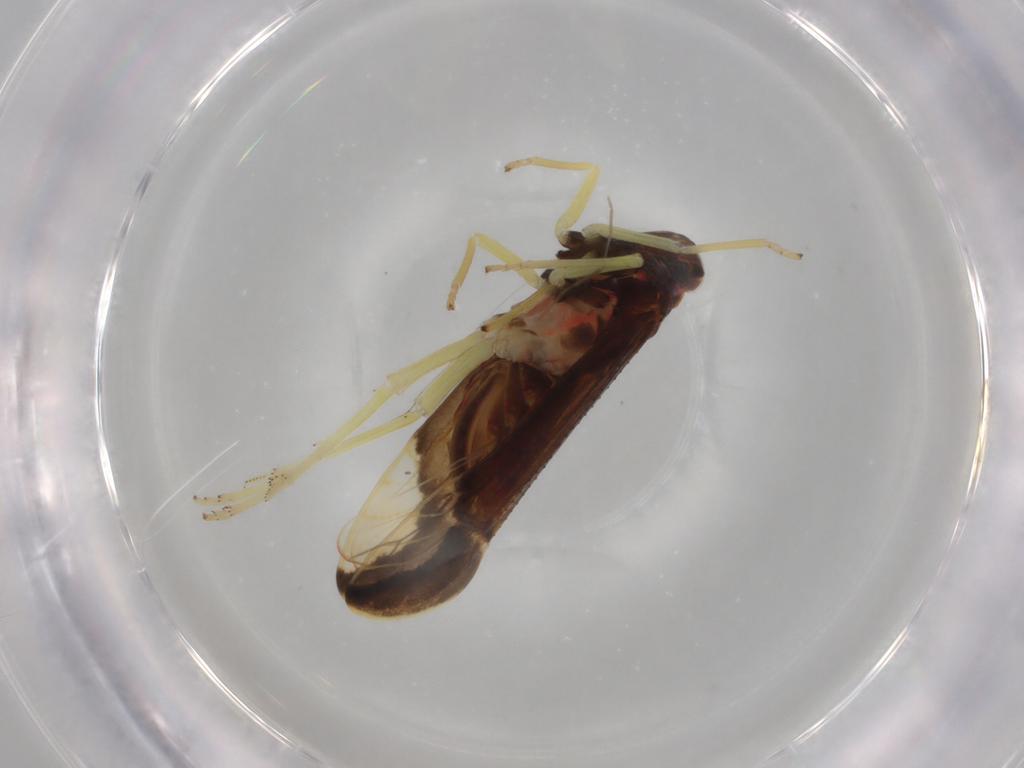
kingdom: Animalia
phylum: Arthropoda
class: Insecta
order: Hemiptera
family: Delphacidae
